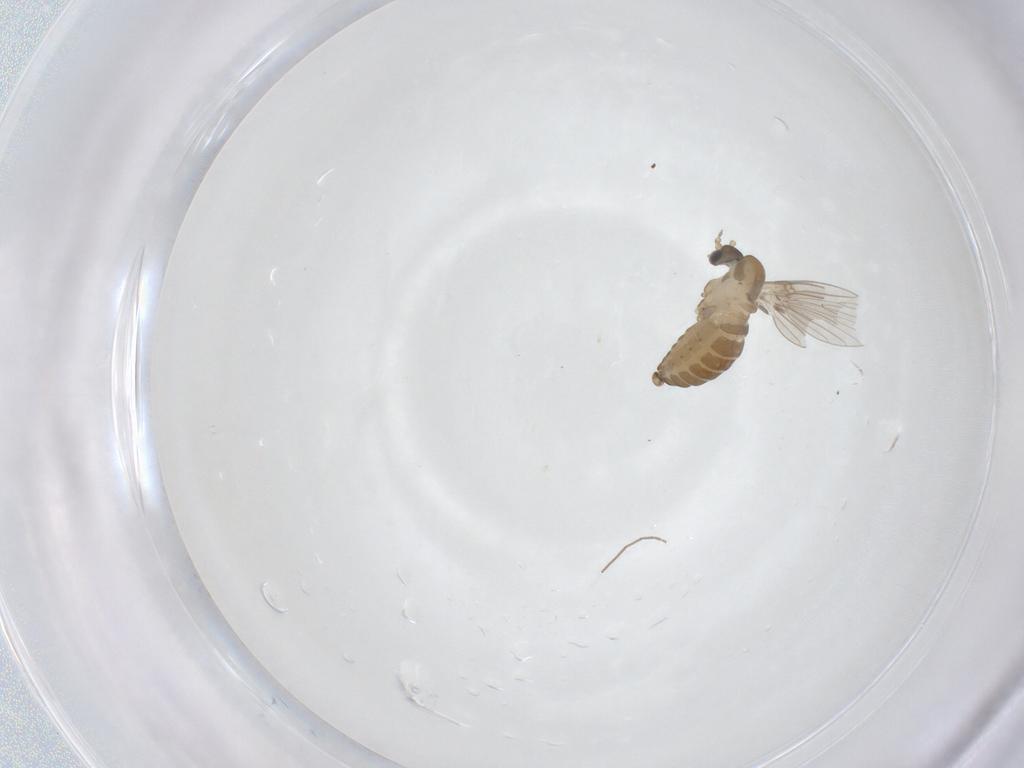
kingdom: Animalia
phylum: Arthropoda
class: Insecta
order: Diptera
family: Psychodidae
